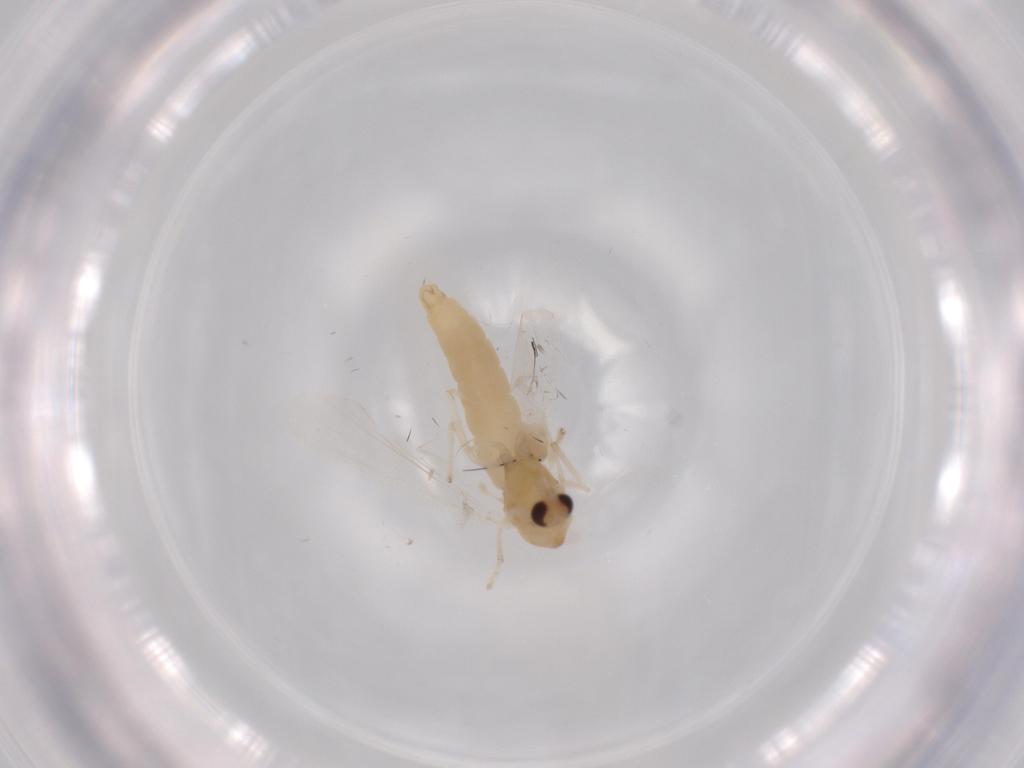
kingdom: Animalia
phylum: Arthropoda
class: Insecta
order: Diptera
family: Chironomidae
